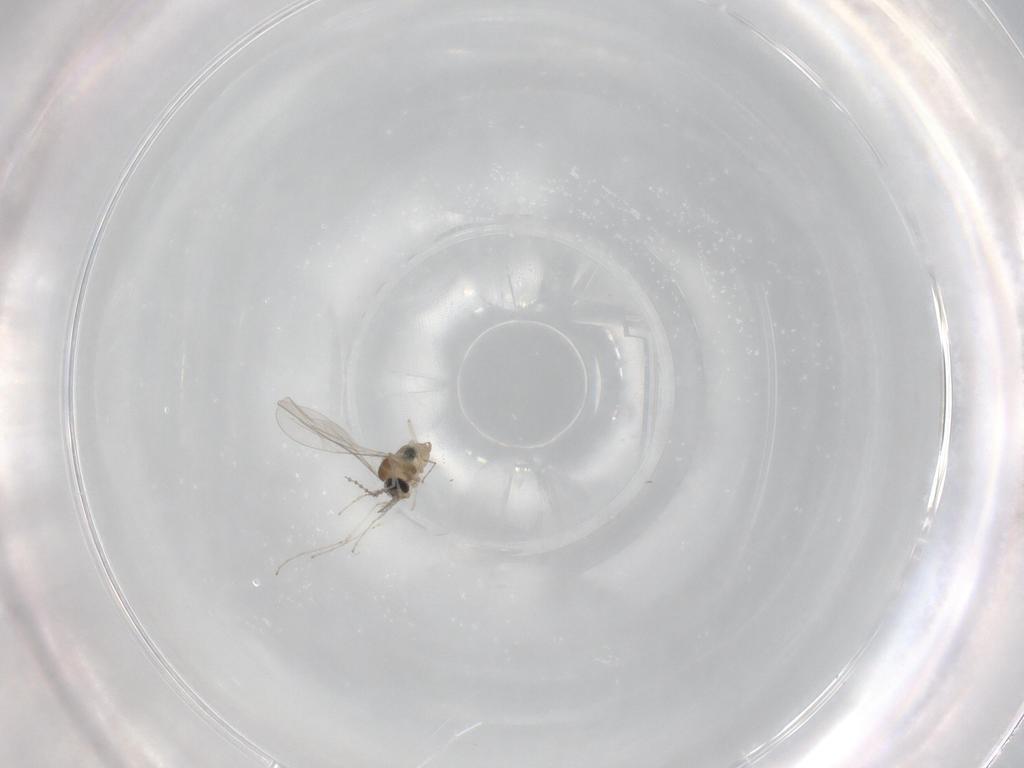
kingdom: Animalia
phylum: Arthropoda
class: Insecta
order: Diptera
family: Cecidomyiidae
